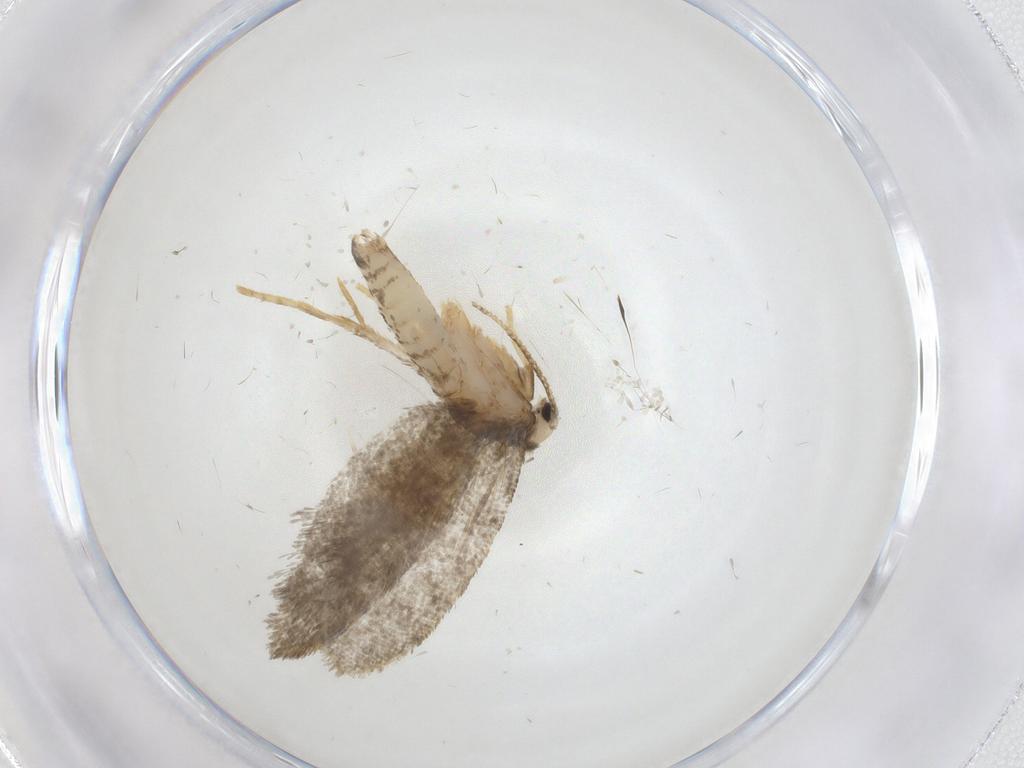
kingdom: Animalia
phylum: Arthropoda
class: Insecta
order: Lepidoptera
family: Psychidae
